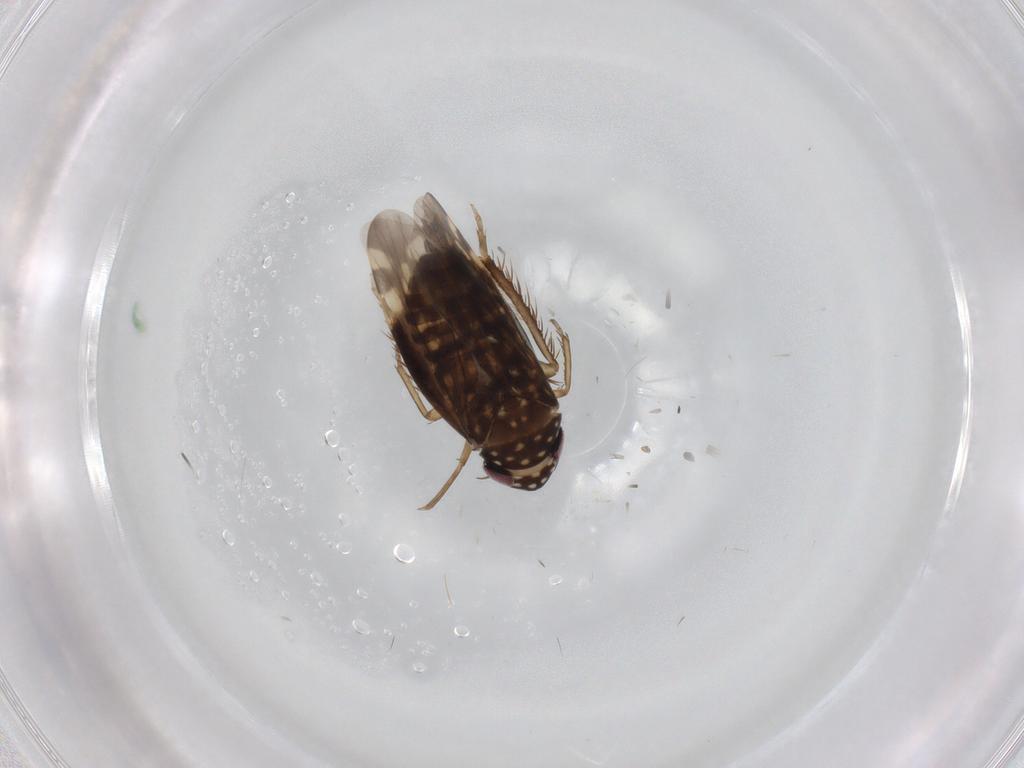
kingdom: Animalia
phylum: Arthropoda
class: Insecta
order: Hemiptera
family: Cicadellidae
